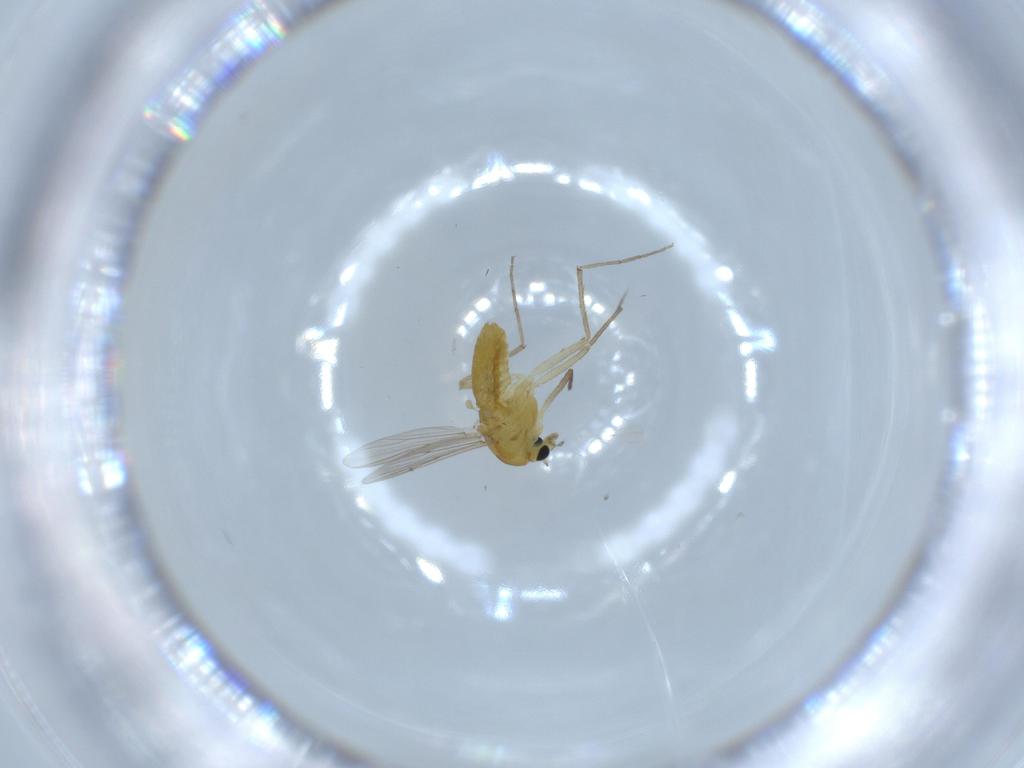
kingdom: Animalia
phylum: Arthropoda
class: Insecta
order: Diptera
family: Chironomidae
